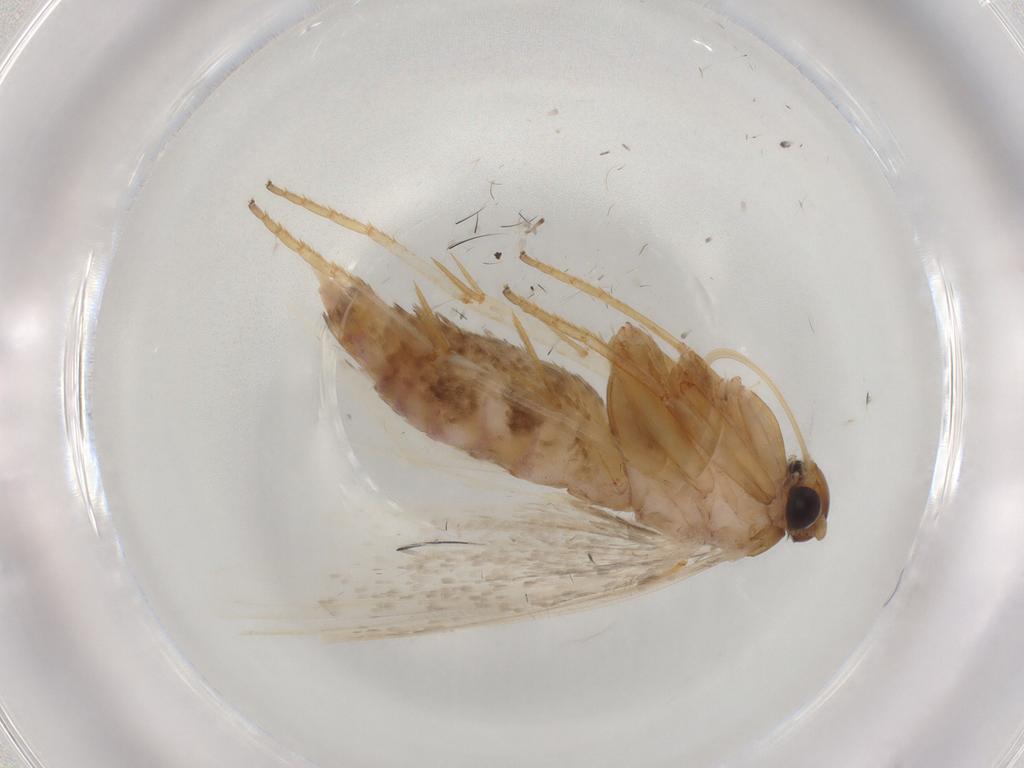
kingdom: Animalia
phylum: Arthropoda
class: Insecta
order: Lepidoptera
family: Blastobasidae
